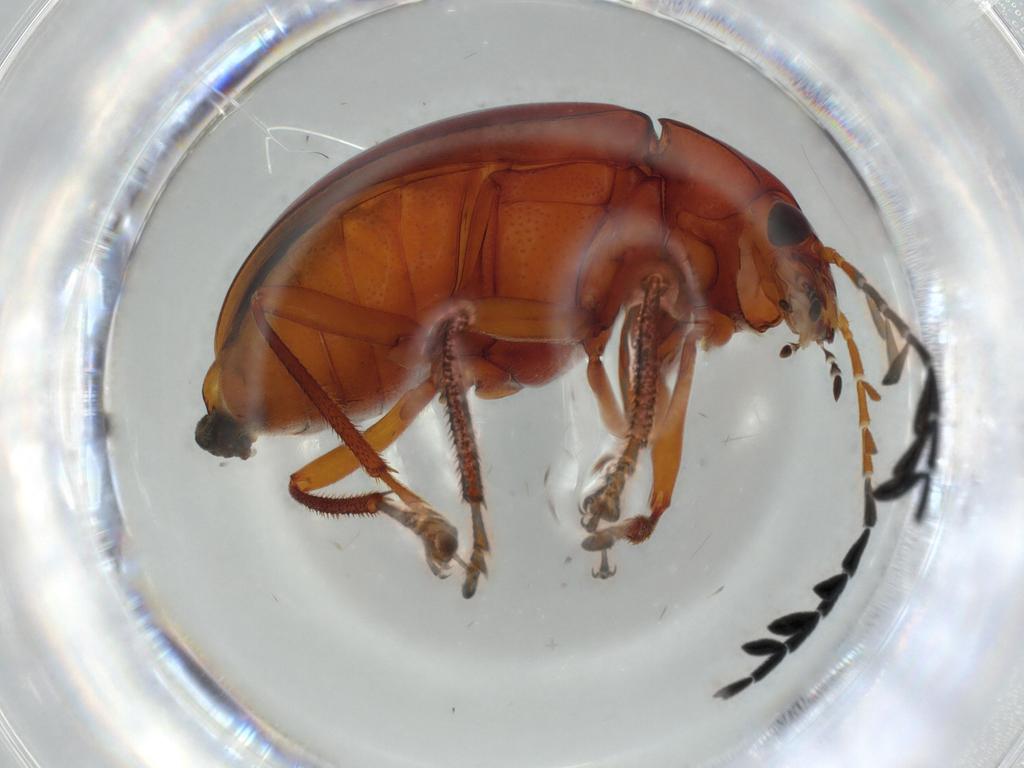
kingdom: Animalia
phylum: Arthropoda
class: Insecta
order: Coleoptera
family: Ptilodactylidae
